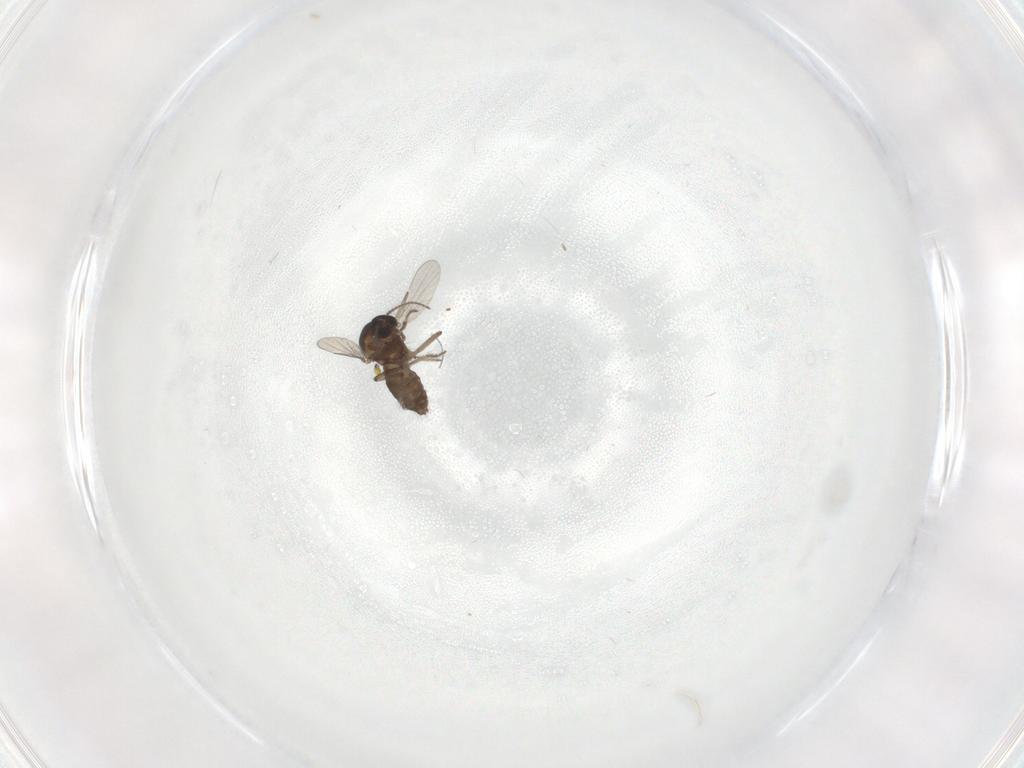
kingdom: Animalia
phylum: Arthropoda
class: Insecta
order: Diptera
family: Ceratopogonidae
